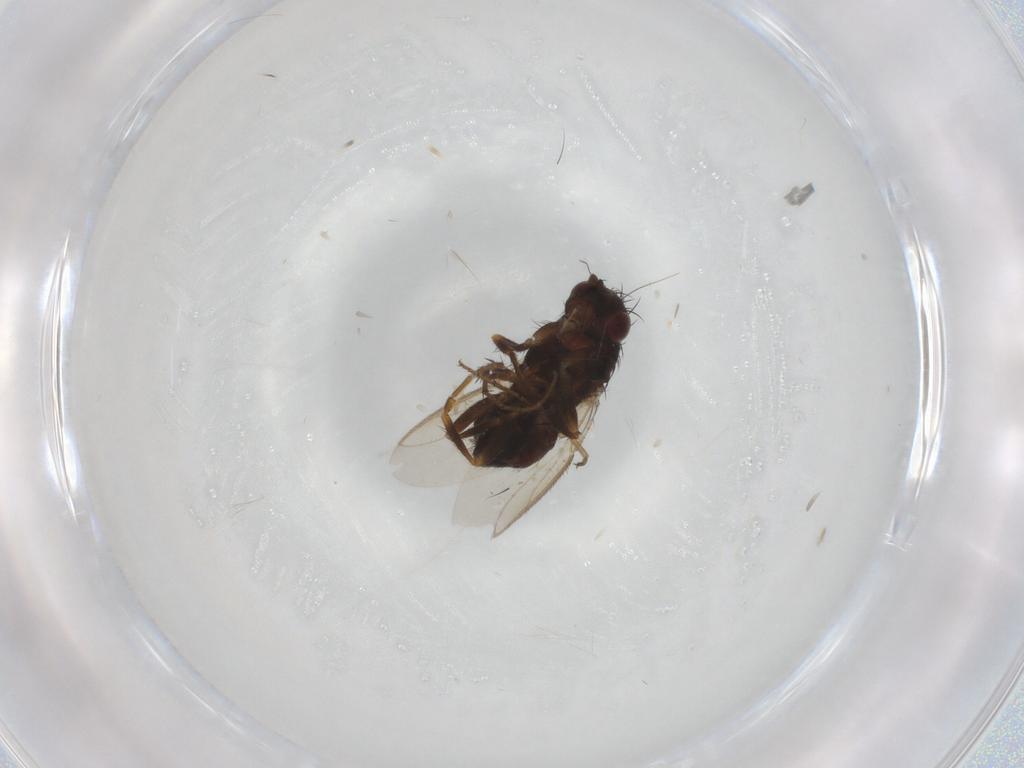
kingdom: Animalia
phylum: Arthropoda
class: Insecta
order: Diptera
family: Sphaeroceridae
